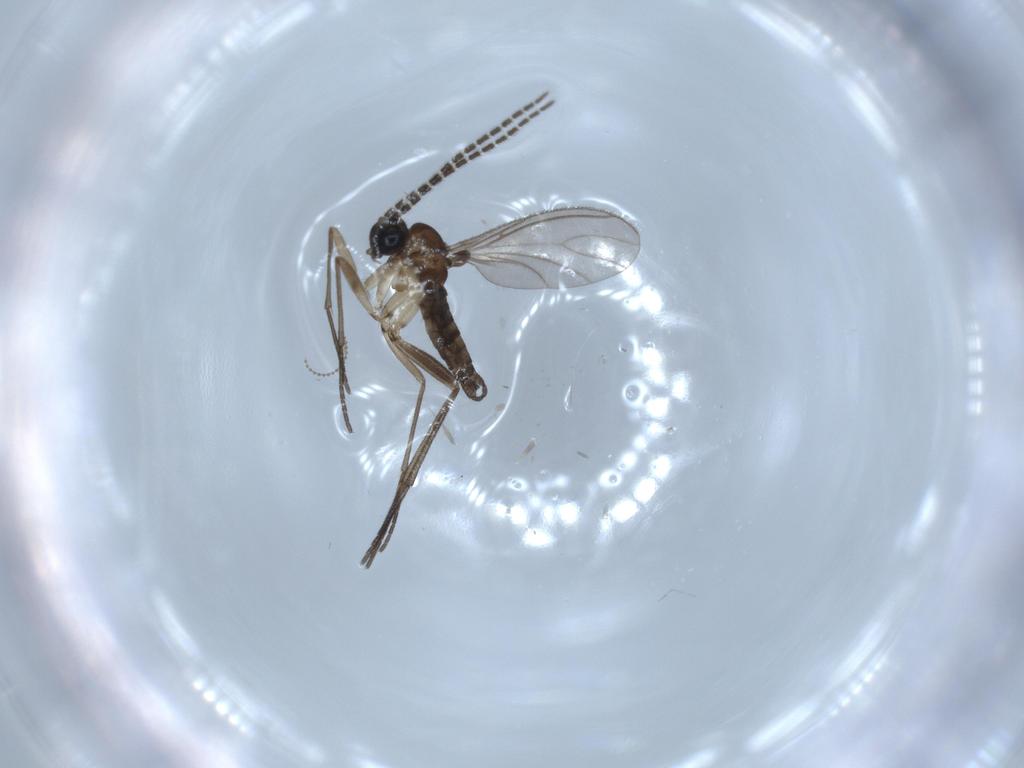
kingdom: Animalia
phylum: Arthropoda
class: Insecta
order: Diptera
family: Sciaridae
